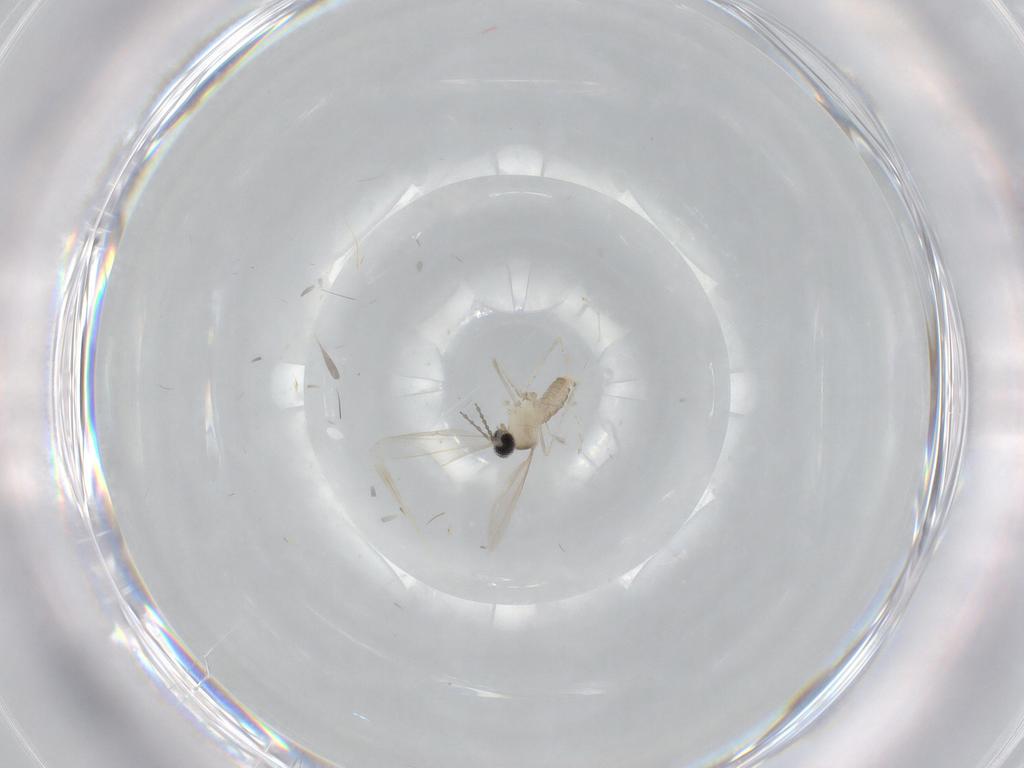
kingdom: Animalia
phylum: Arthropoda
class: Insecta
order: Diptera
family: Cecidomyiidae
